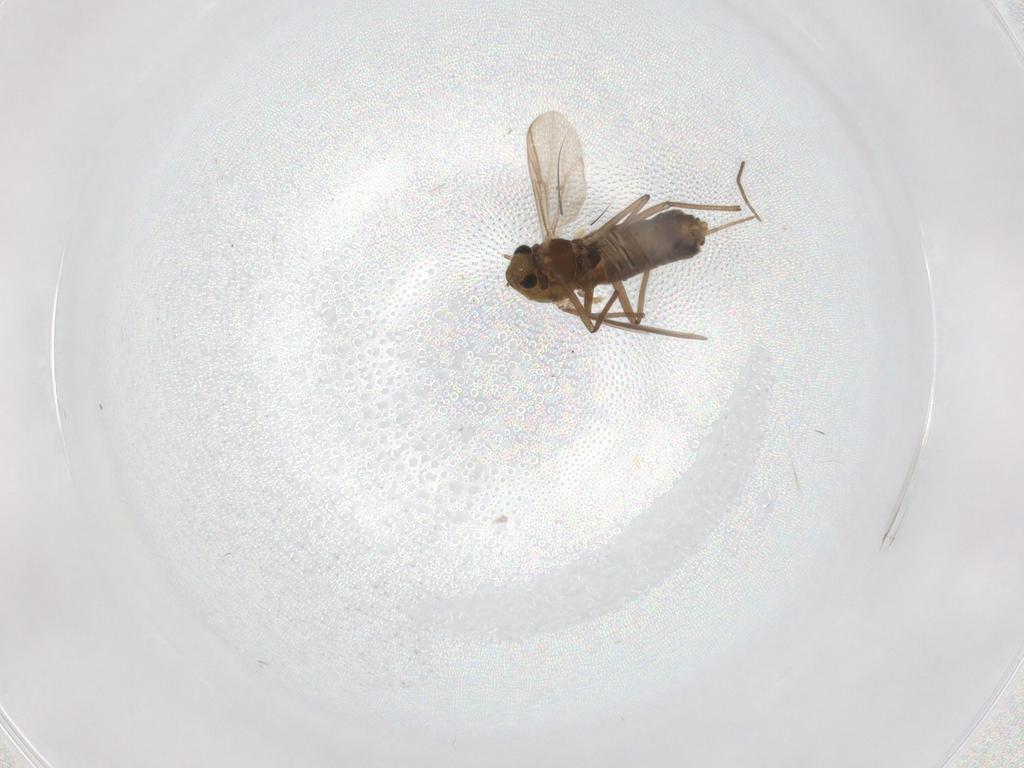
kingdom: Animalia
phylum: Arthropoda
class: Insecta
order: Diptera
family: Chironomidae
